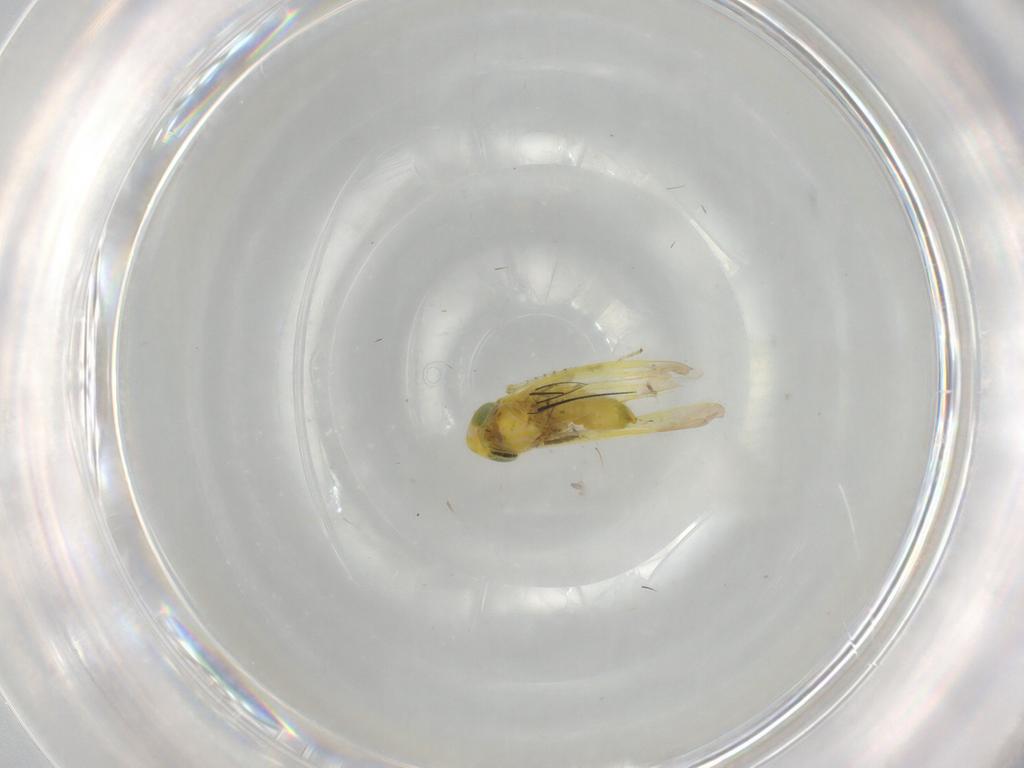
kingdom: Animalia
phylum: Arthropoda
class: Insecta
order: Hemiptera
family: Cicadellidae
